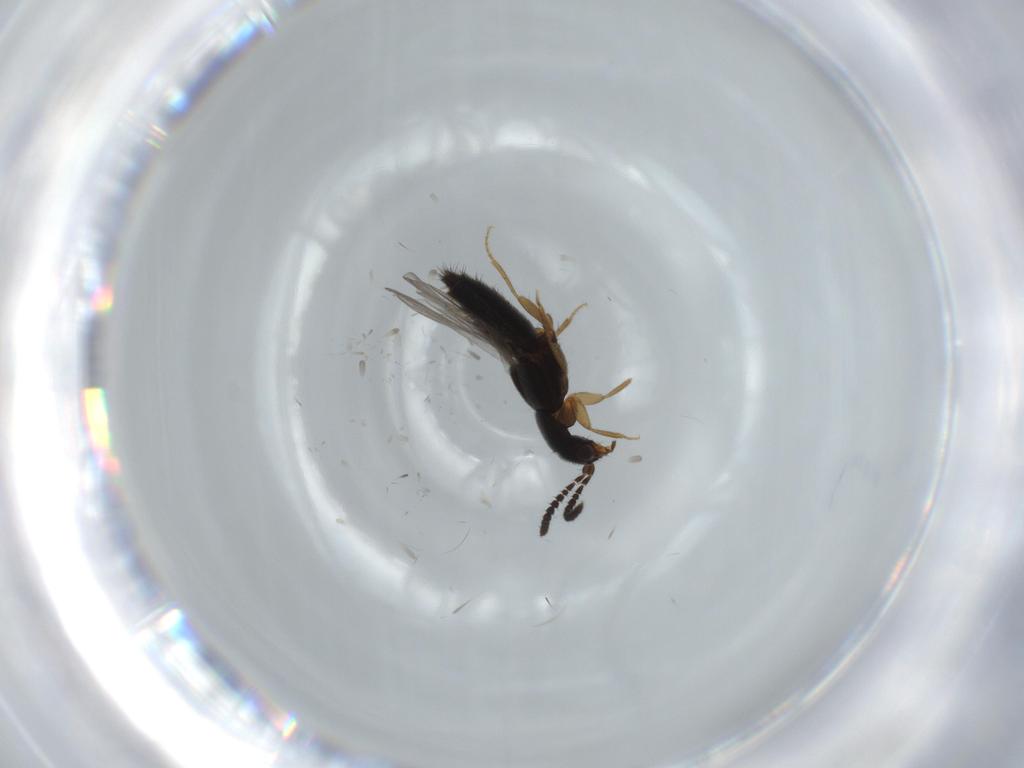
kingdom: Animalia
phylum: Arthropoda
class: Insecta
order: Coleoptera
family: Staphylinidae
